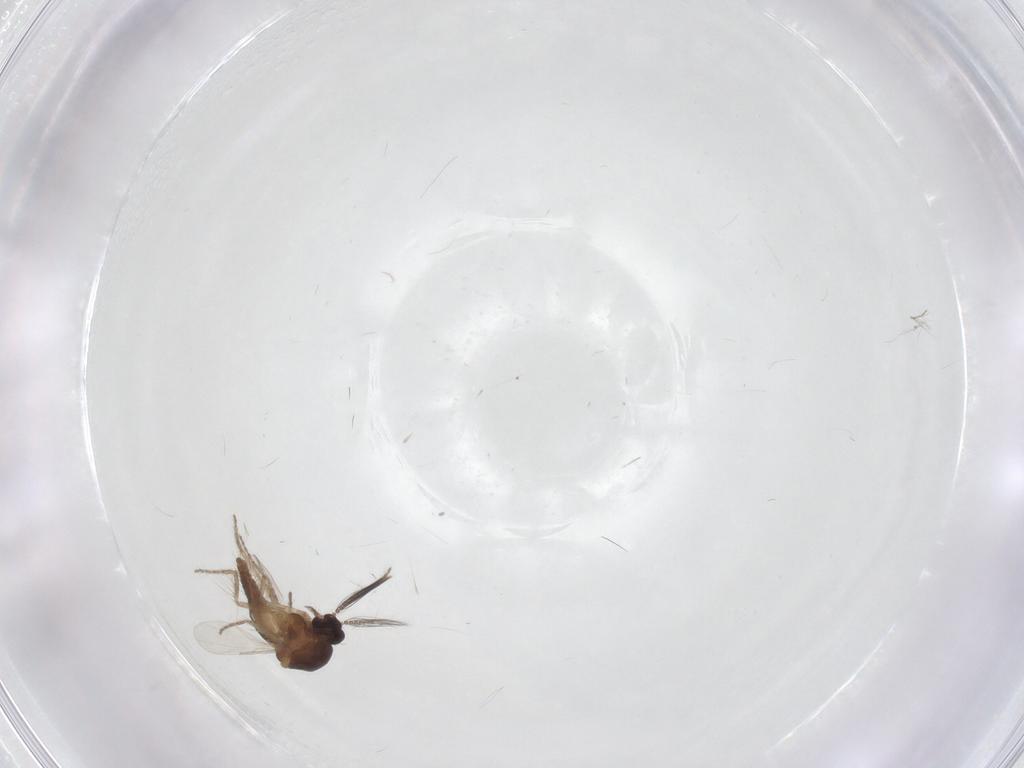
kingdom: Animalia
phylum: Arthropoda
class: Insecta
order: Diptera
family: Ceratopogonidae
